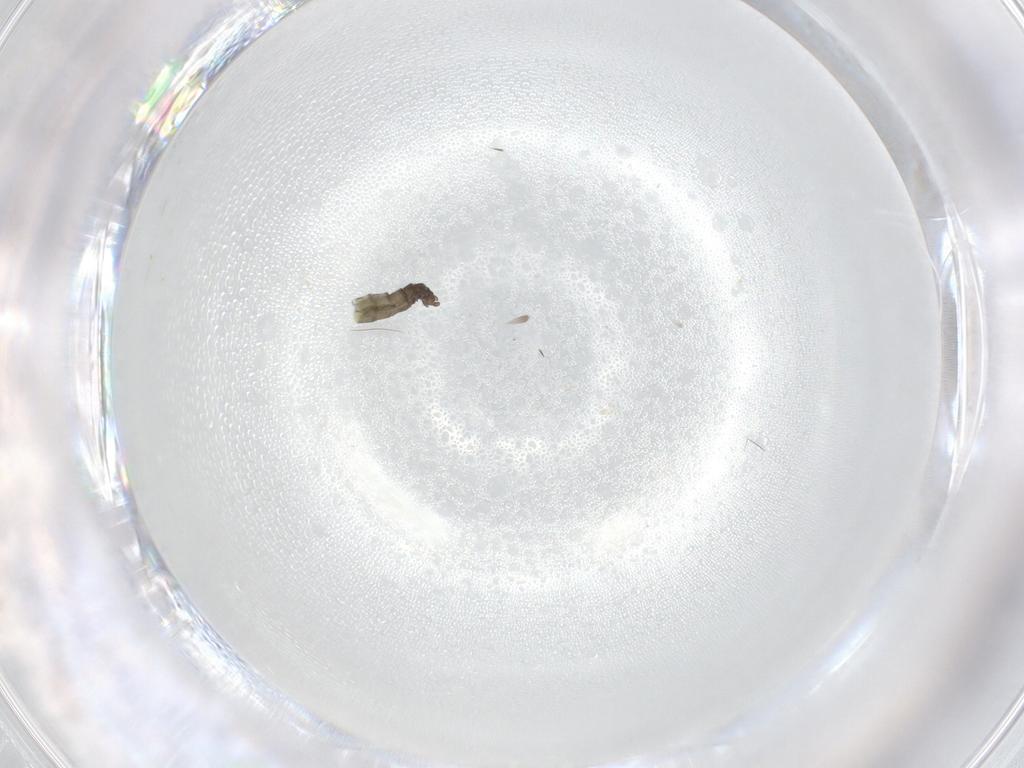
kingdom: Animalia
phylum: Arthropoda
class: Insecta
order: Diptera
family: Cecidomyiidae
